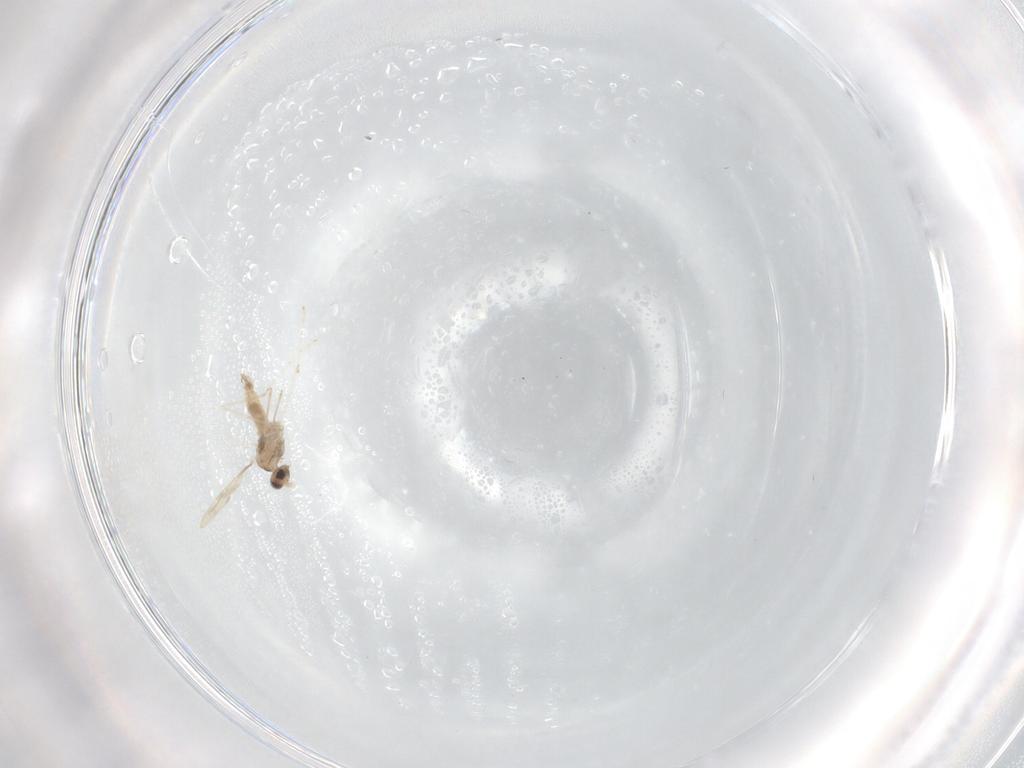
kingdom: Animalia
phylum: Arthropoda
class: Insecta
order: Diptera
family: Cecidomyiidae
